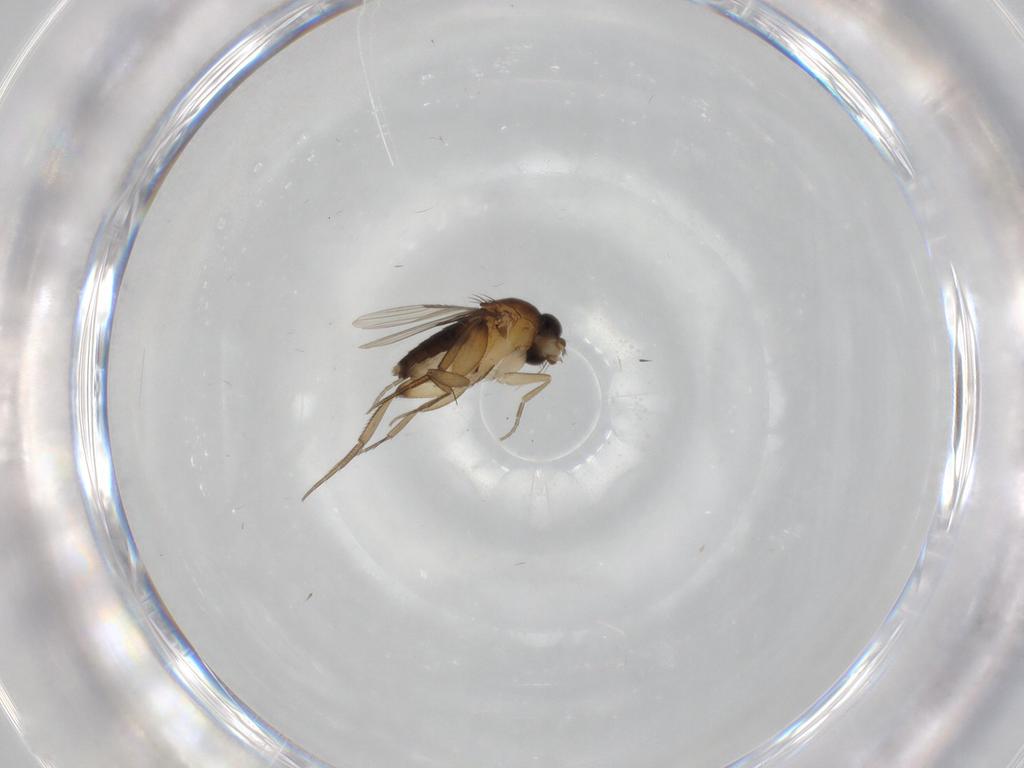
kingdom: Animalia
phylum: Arthropoda
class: Insecta
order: Diptera
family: Phoridae
